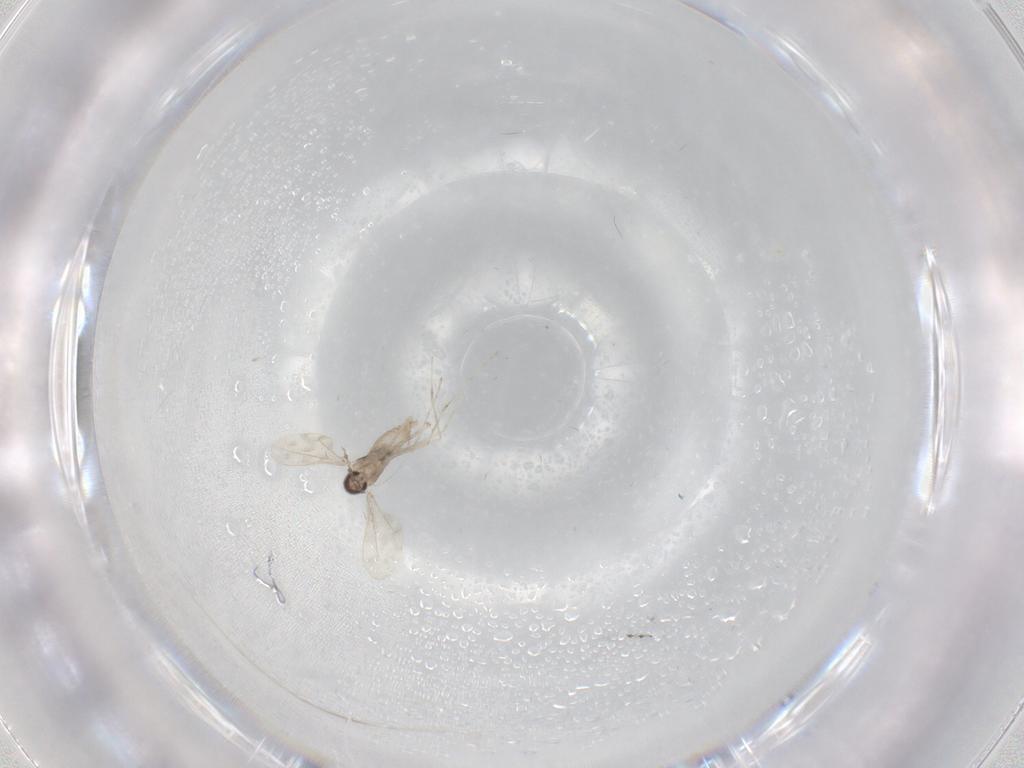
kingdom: Animalia
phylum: Arthropoda
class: Insecta
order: Diptera
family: Cecidomyiidae
